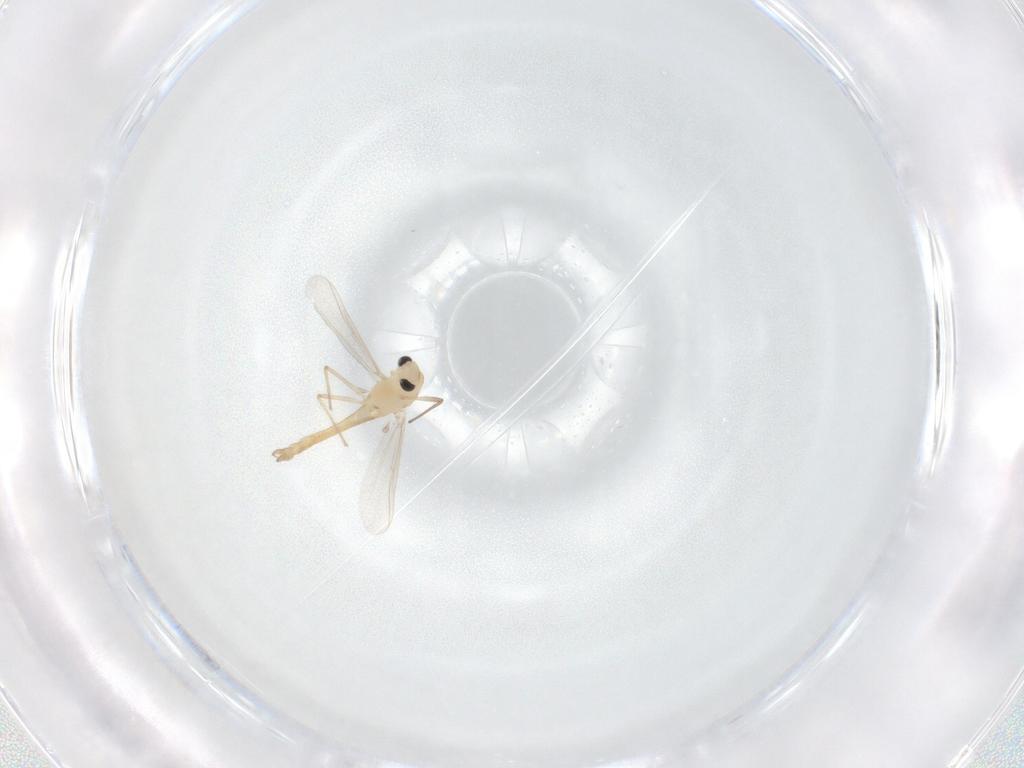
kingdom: Animalia
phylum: Arthropoda
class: Insecta
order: Diptera
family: Chironomidae
